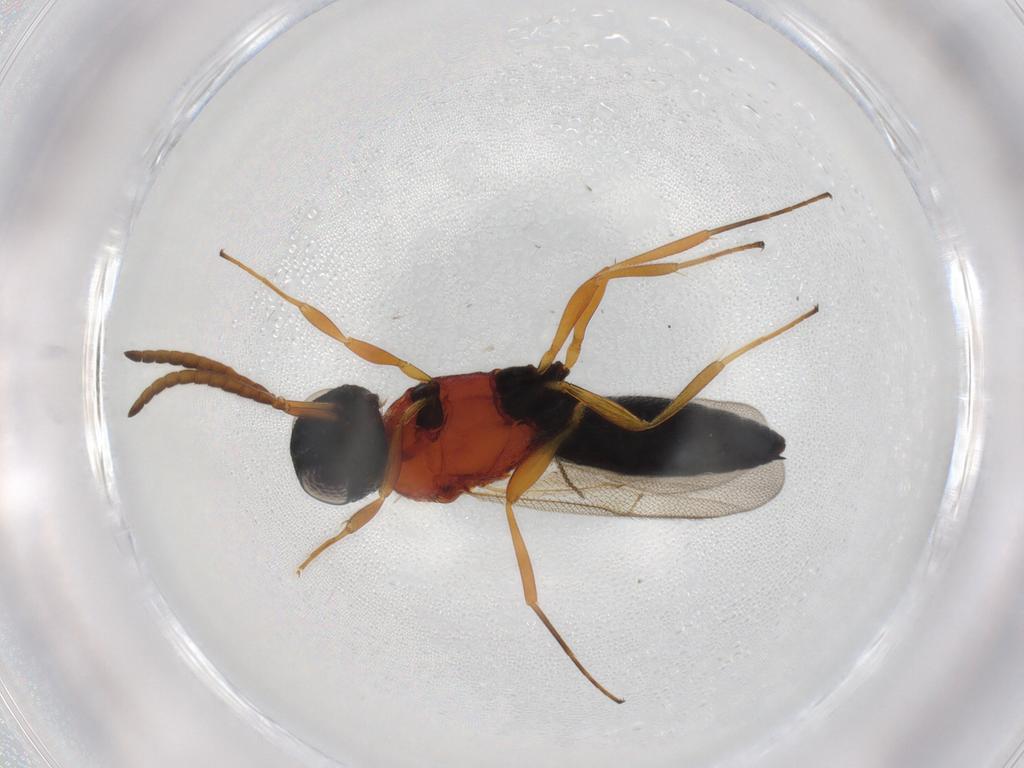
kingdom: Animalia
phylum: Arthropoda
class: Insecta
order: Hymenoptera
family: Scelionidae
